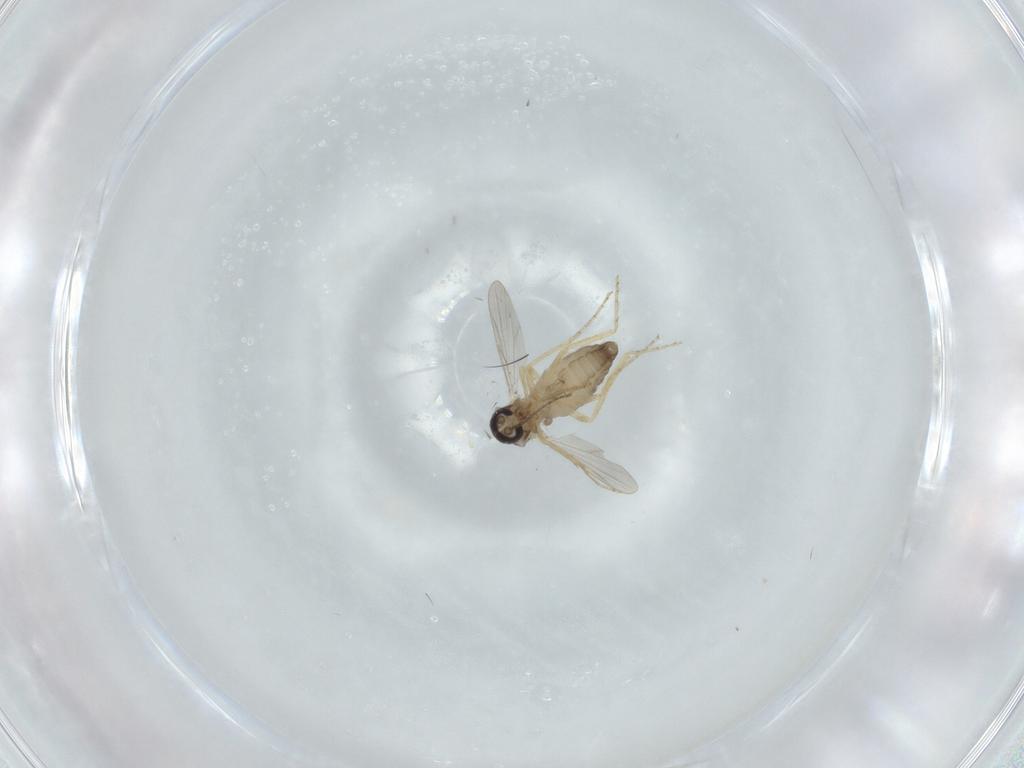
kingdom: Animalia
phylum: Arthropoda
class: Insecta
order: Diptera
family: Ceratopogonidae
